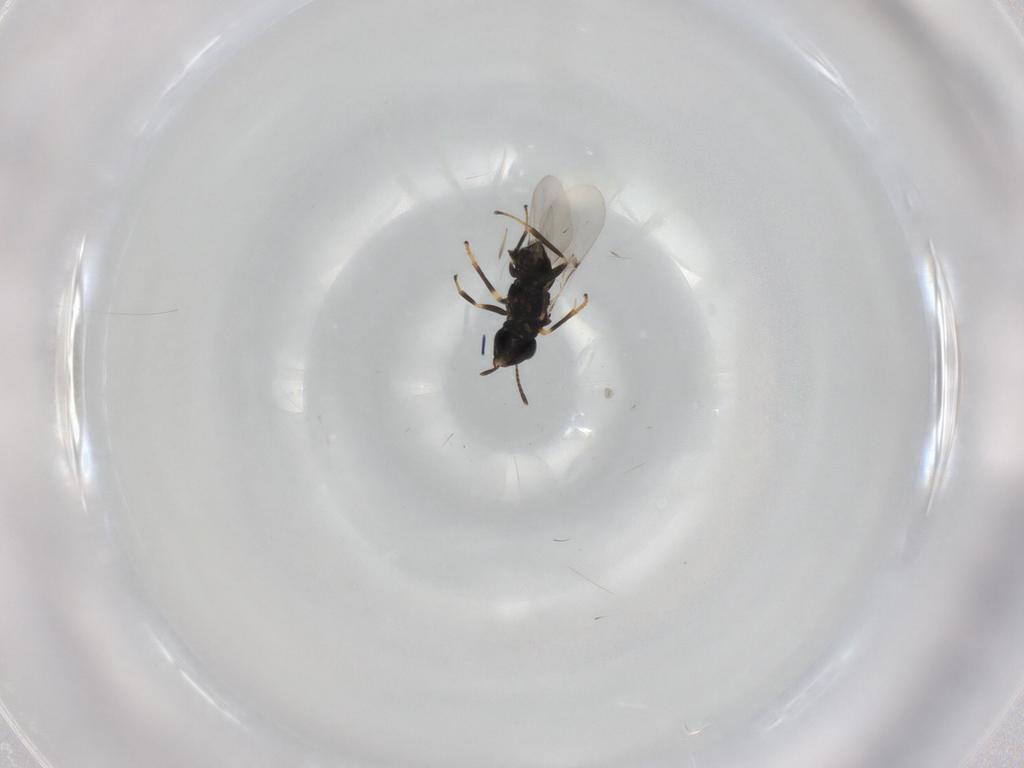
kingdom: Animalia
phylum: Arthropoda
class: Insecta
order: Hymenoptera
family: Encyrtidae
